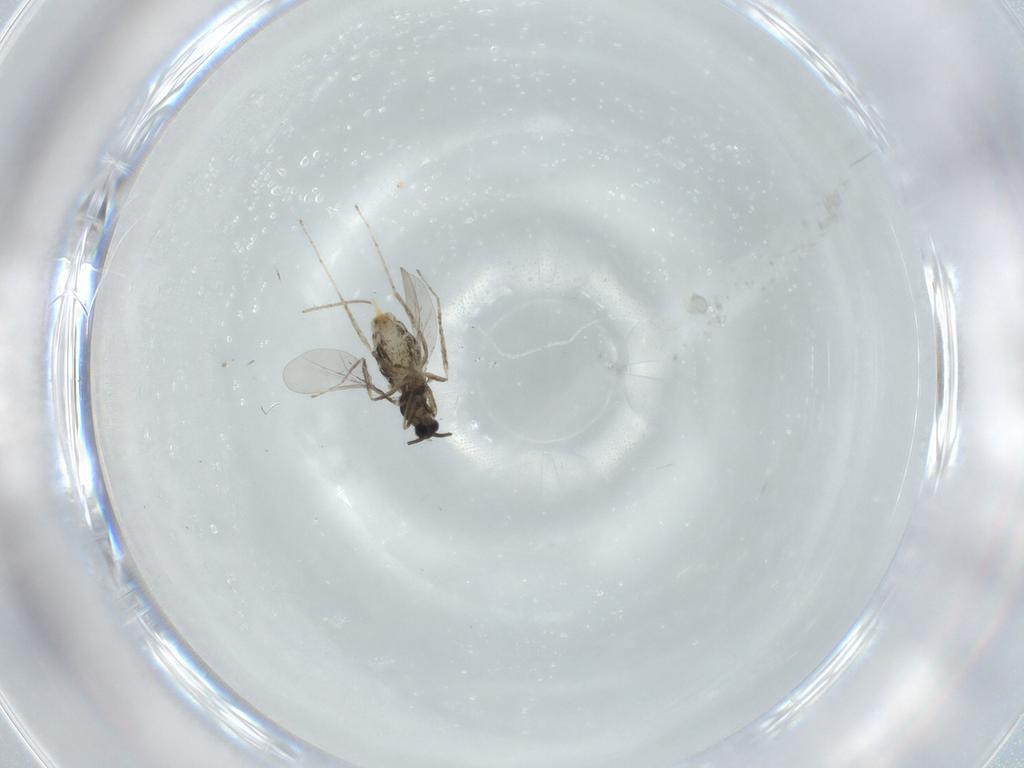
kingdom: Animalia
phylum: Arthropoda
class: Insecta
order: Diptera
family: Cecidomyiidae
